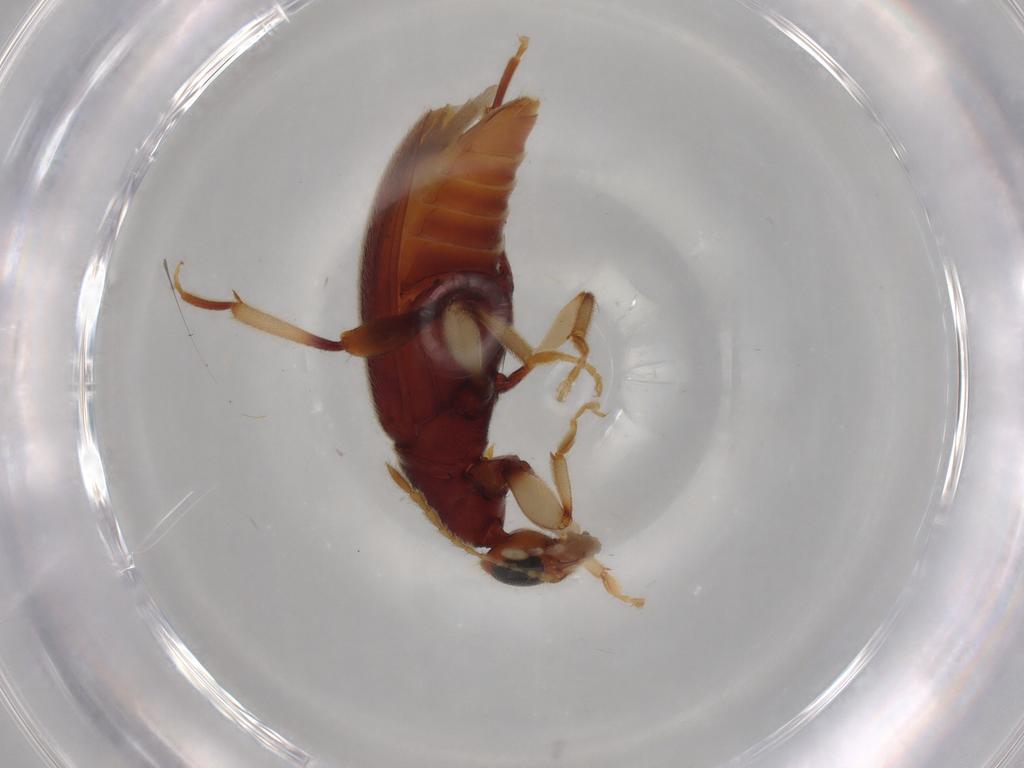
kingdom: Animalia
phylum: Arthropoda
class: Insecta
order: Coleoptera
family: Anthicidae
